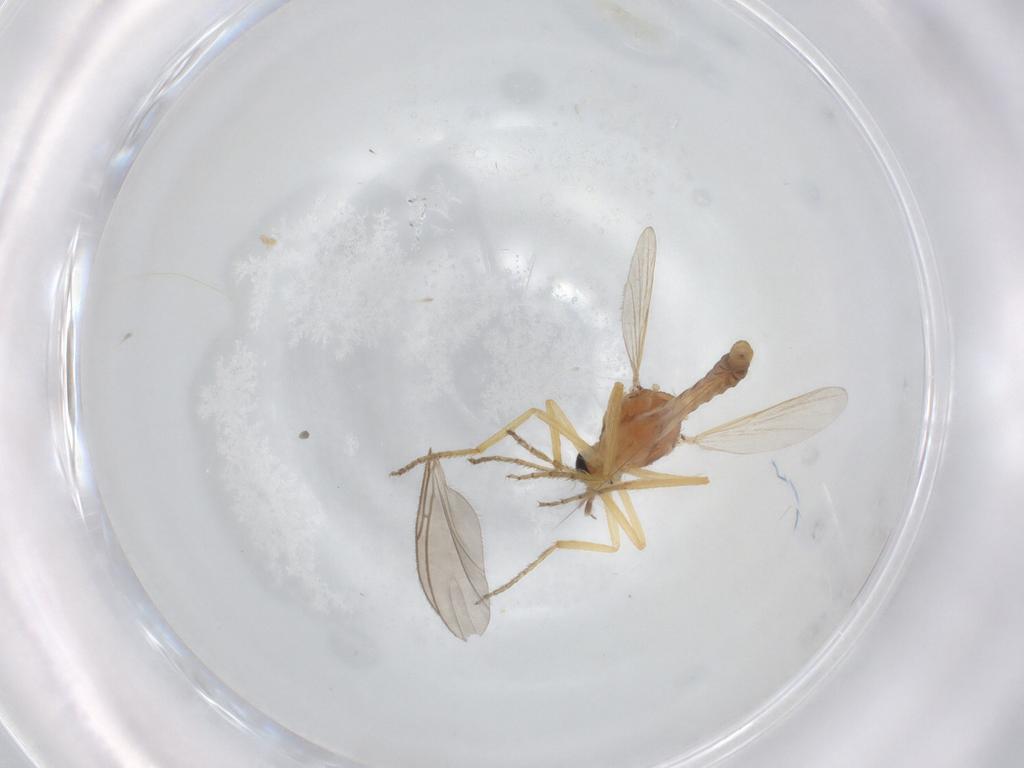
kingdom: Animalia
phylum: Arthropoda
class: Insecta
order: Diptera
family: Ceratopogonidae
